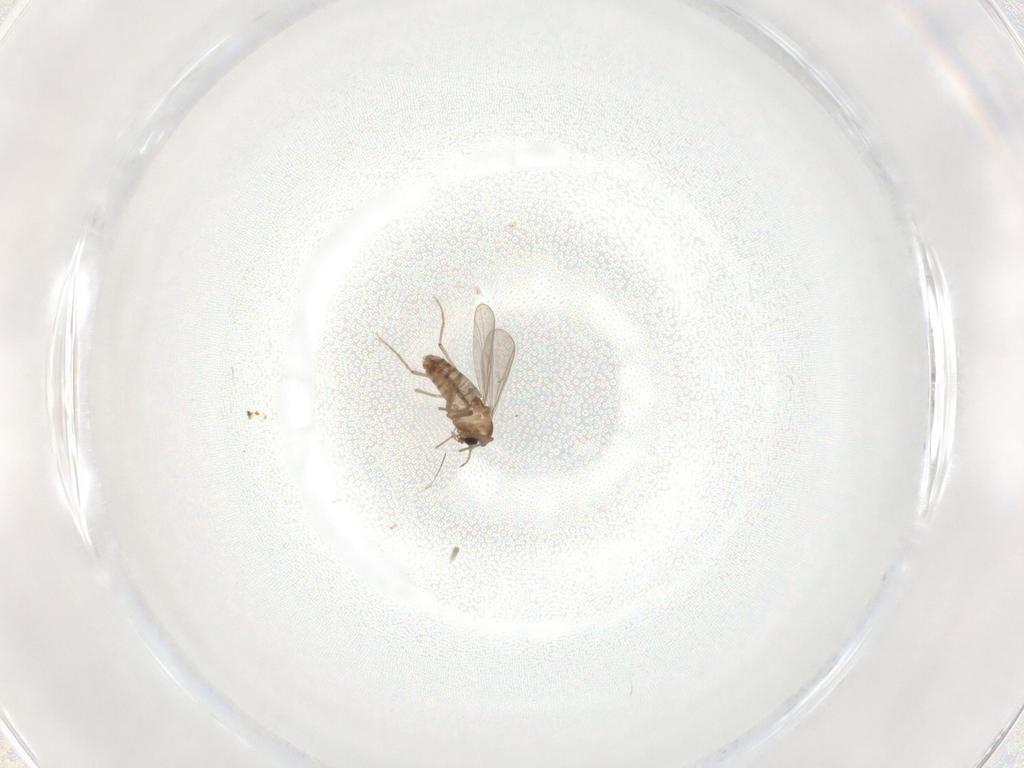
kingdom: Animalia
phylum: Arthropoda
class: Insecta
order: Diptera
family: Chironomidae
